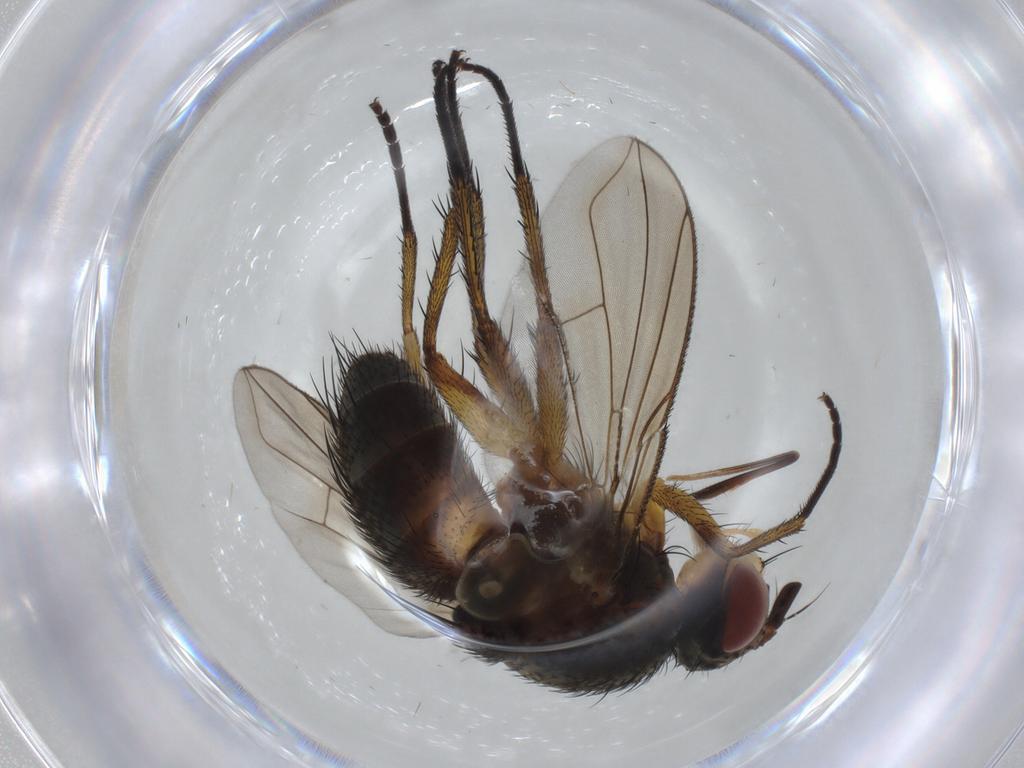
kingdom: Animalia
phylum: Arthropoda
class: Insecta
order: Diptera
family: Tachinidae
